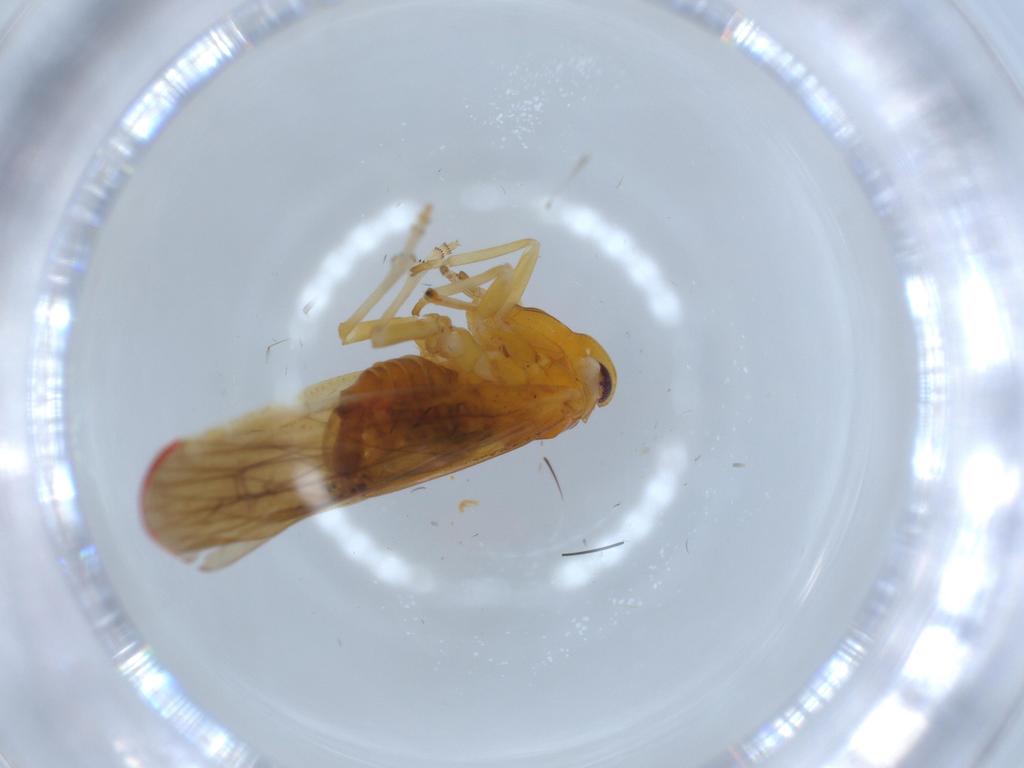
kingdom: Animalia
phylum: Arthropoda
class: Insecta
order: Hemiptera
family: Derbidae
